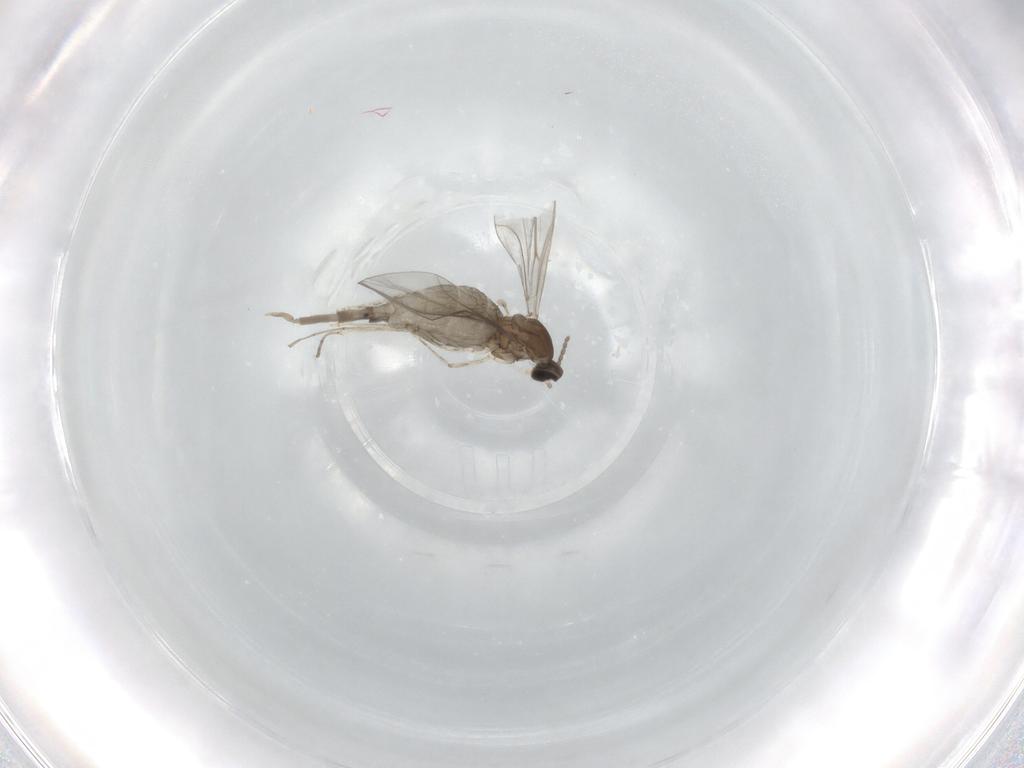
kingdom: Animalia
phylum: Arthropoda
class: Insecta
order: Diptera
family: Cecidomyiidae
